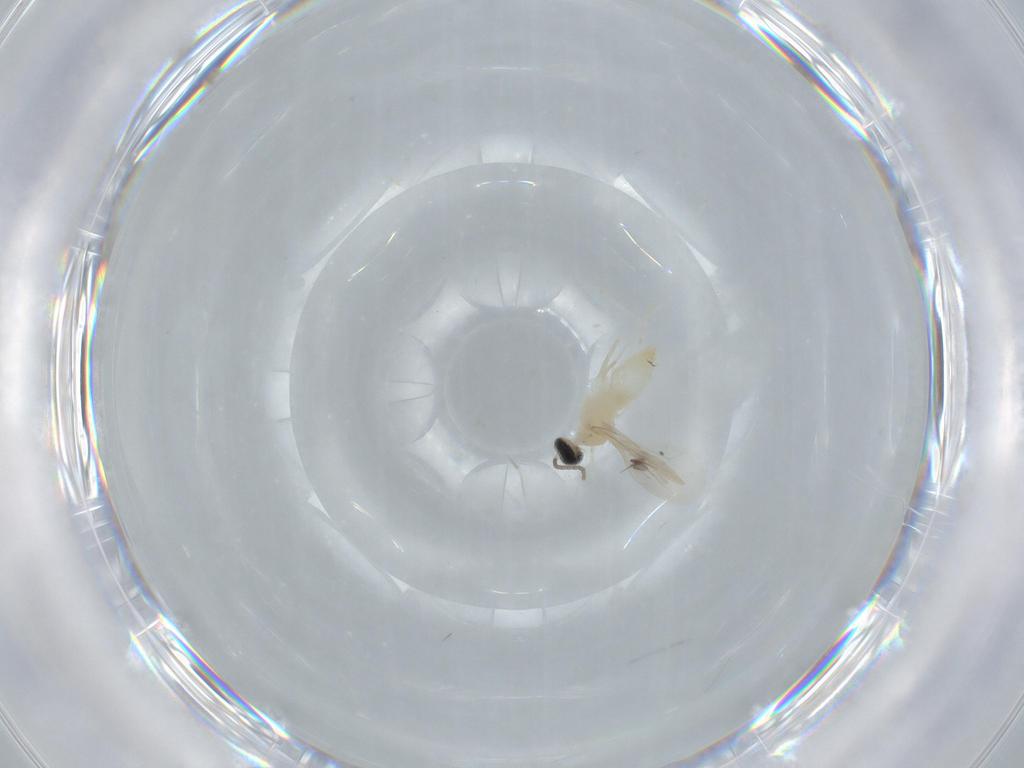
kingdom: Animalia
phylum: Arthropoda
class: Insecta
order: Diptera
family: Cecidomyiidae
